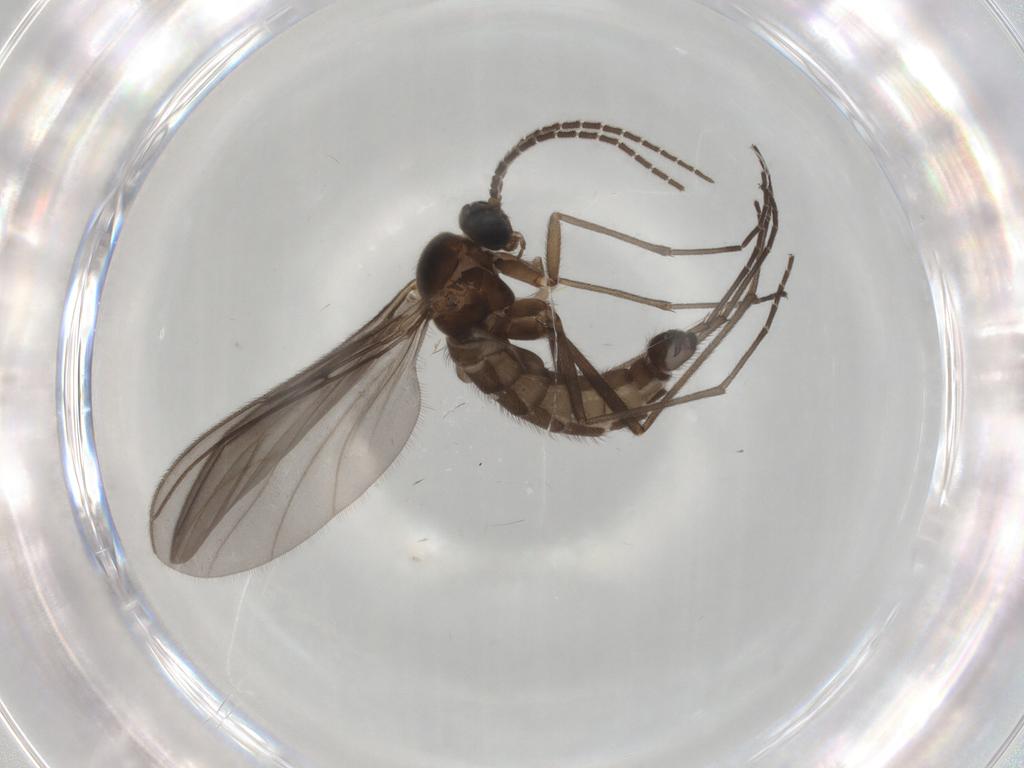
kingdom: Animalia
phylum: Arthropoda
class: Insecta
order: Diptera
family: Sciaridae
